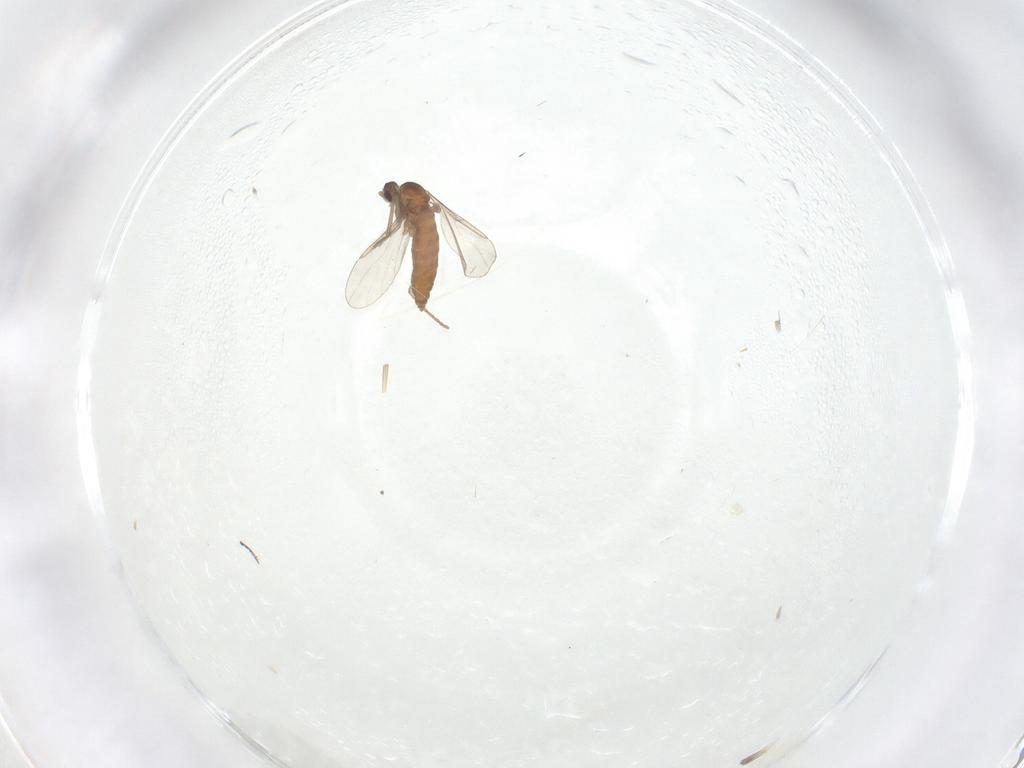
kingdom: Animalia
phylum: Arthropoda
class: Insecta
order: Diptera
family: Cecidomyiidae
